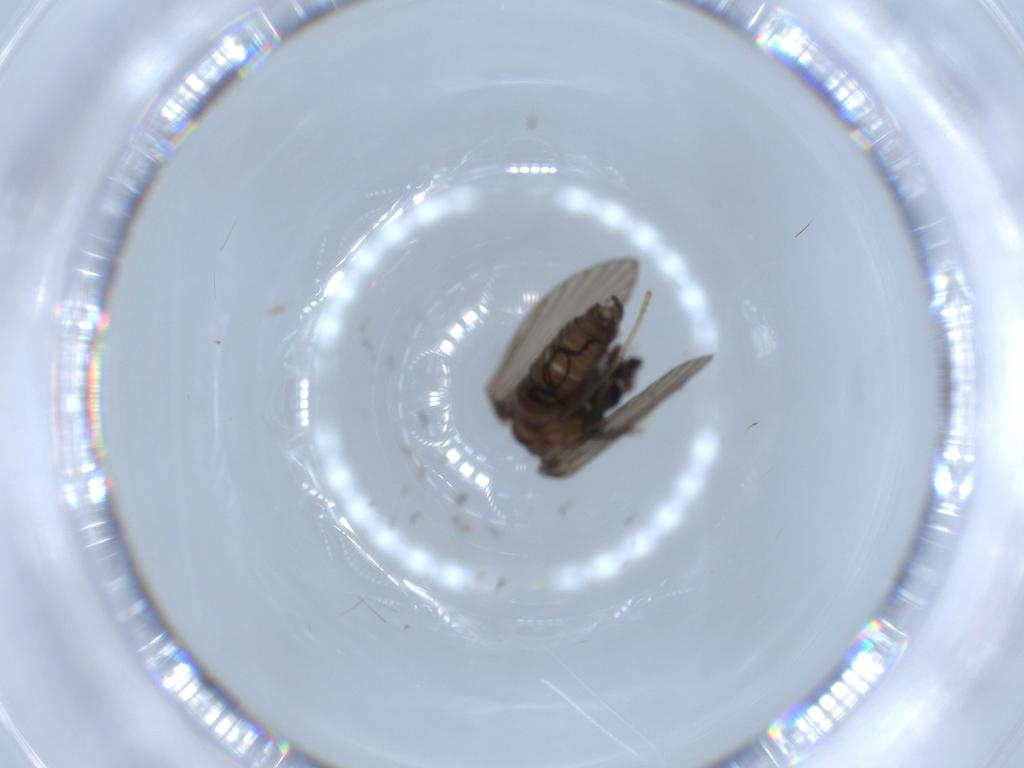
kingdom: Animalia
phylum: Arthropoda
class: Insecta
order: Diptera
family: Psychodidae
